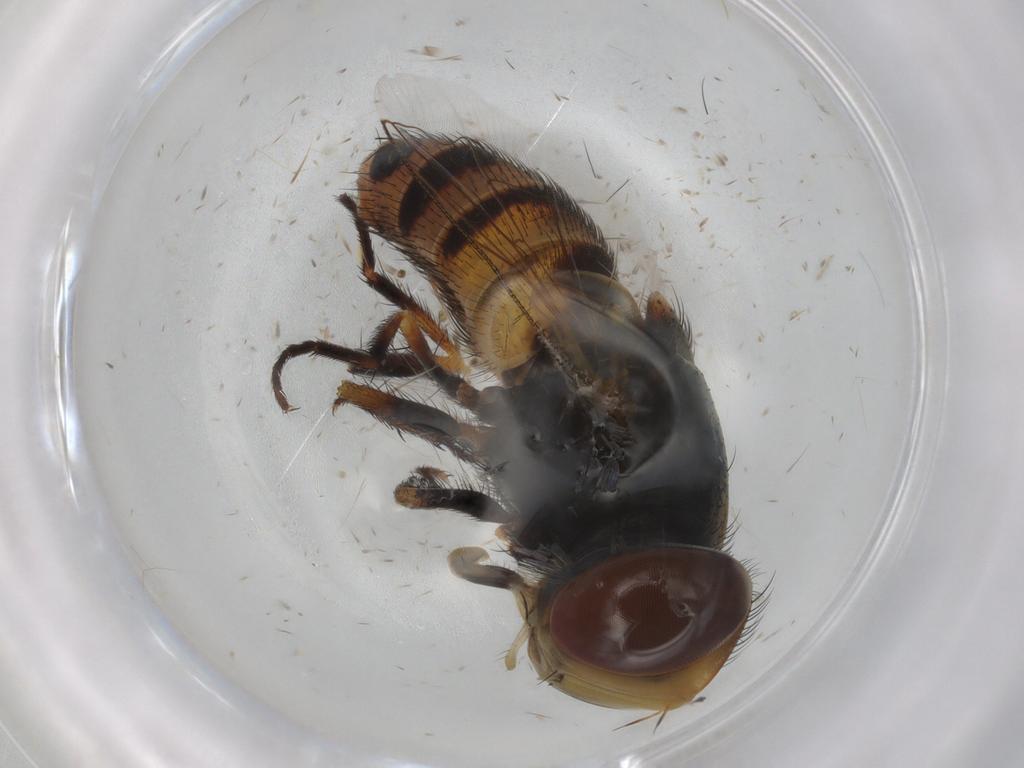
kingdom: Animalia
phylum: Arthropoda
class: Insecta
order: Diptera
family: Dolichopodidae
